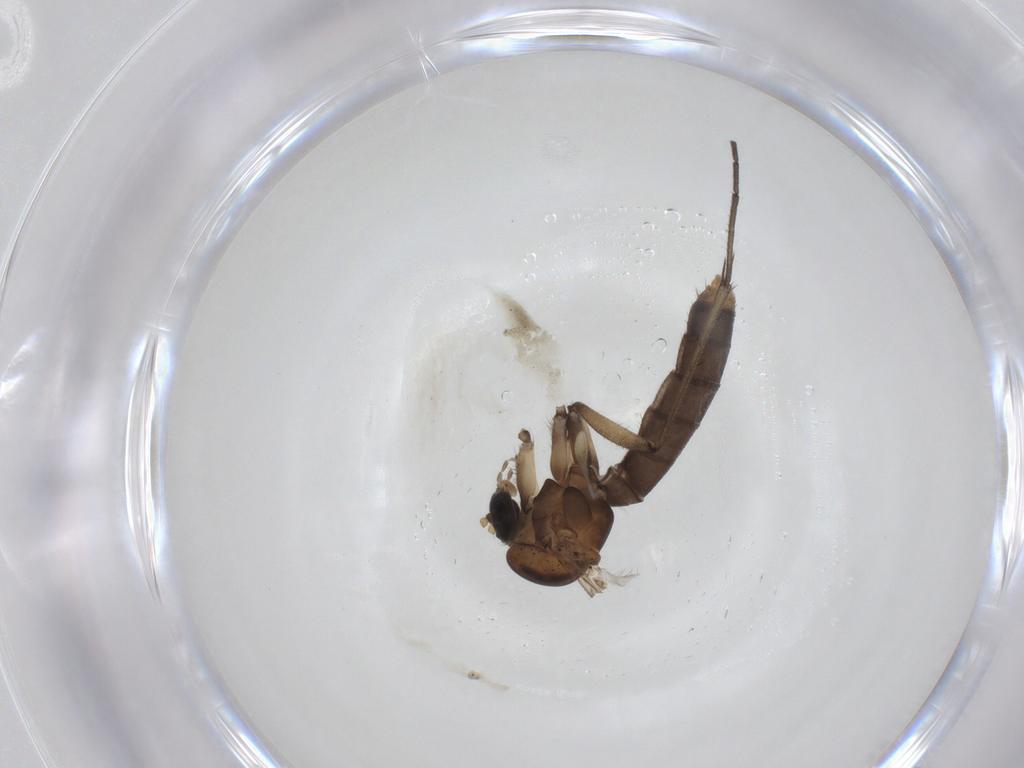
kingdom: Animalia
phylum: Arthropoda
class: Insecta
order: Diptera
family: Mycetophilidae
